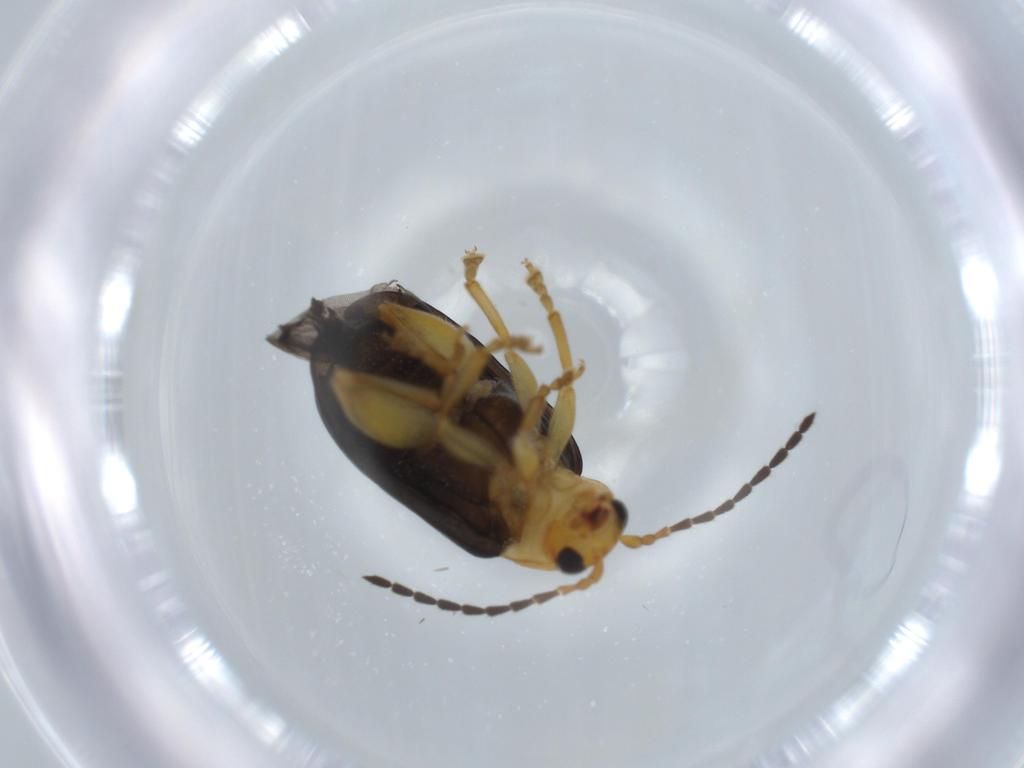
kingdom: Animalia
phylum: Arthropoda
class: Insecta
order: Coleoptera
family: Chrysomelidae
